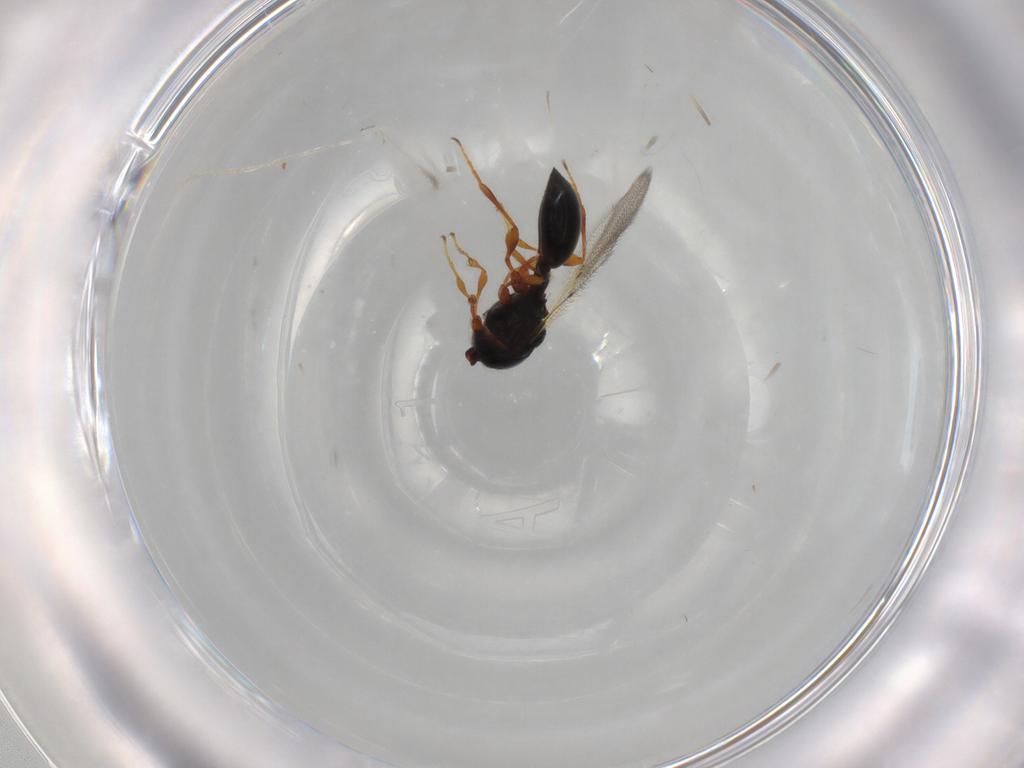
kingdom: Animalia
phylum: Arthropoda
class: Insecta
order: Hymenoptera
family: Diapriidae
